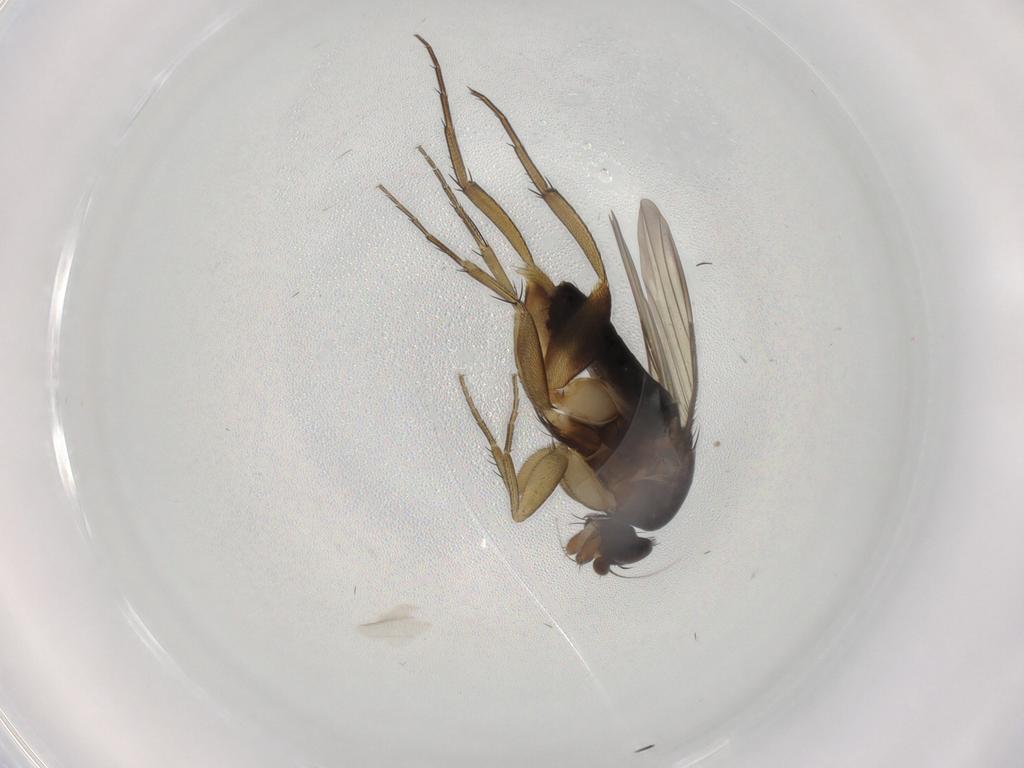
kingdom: Animalia
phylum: Arthropoda
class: Insecta
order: Diptera
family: Phoridae
